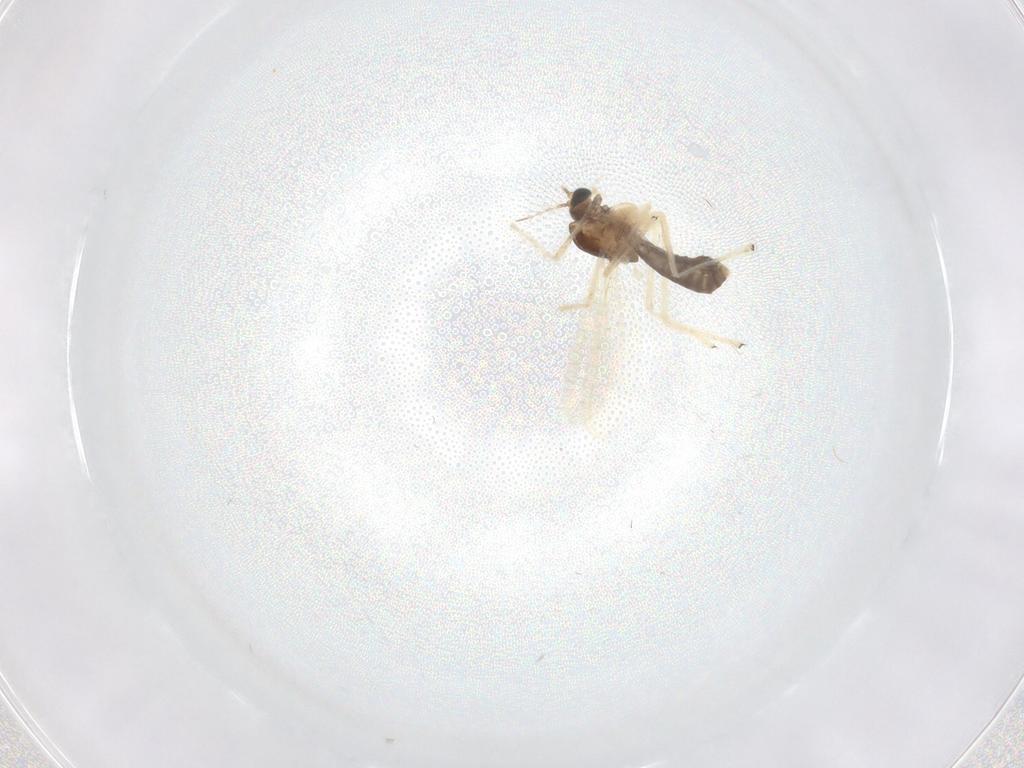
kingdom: Animalia
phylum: Arthropoda
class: Insecta
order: Diptera
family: Chironomidae
